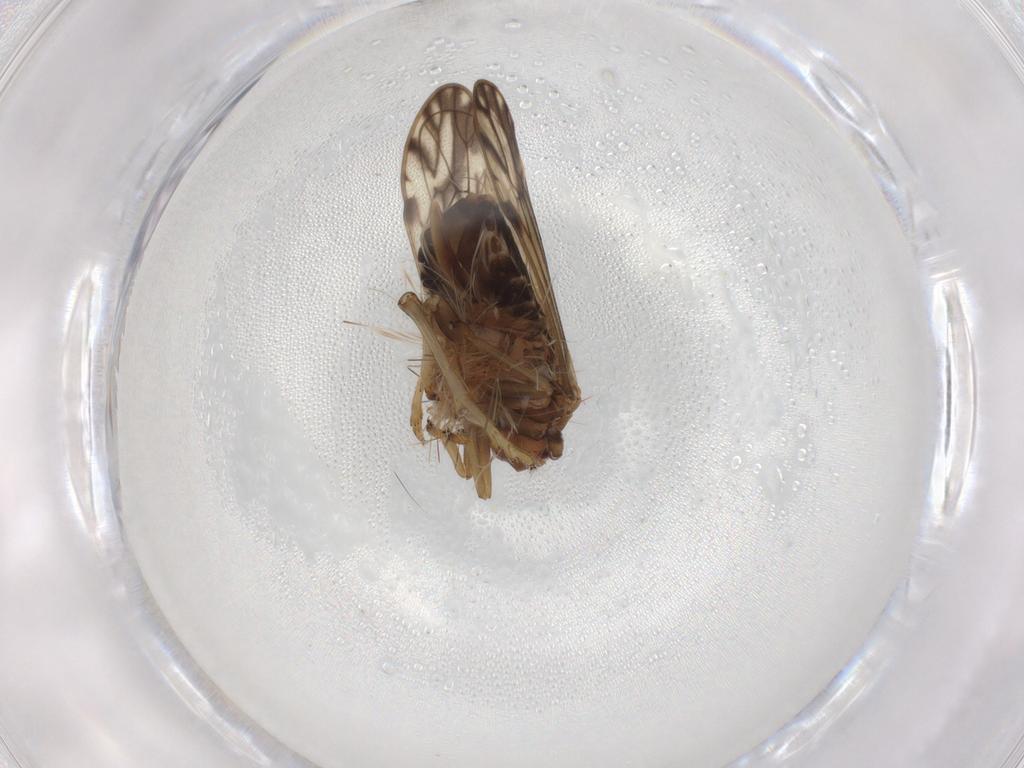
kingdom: Animalia
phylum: Arthropoda
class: Insecta
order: Hemiptera
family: Delphacidae
